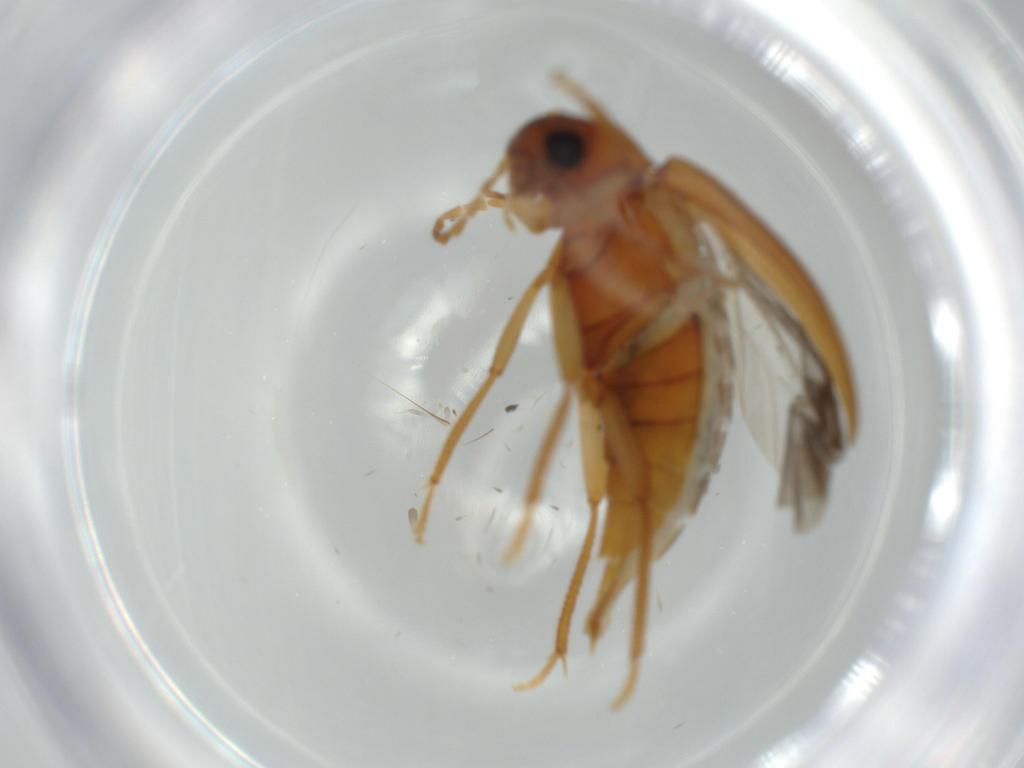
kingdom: Animalia
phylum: Arthropoda
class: Insecta
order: Coleoptera
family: Ptilodactylidae
